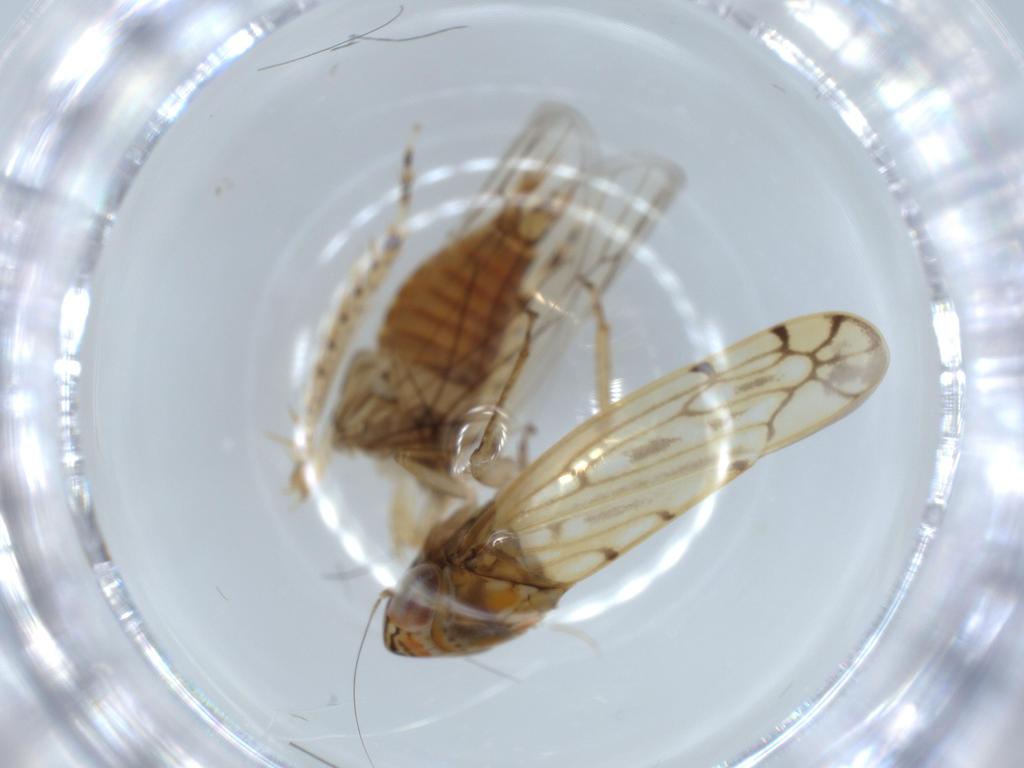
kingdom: Animalia
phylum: Arthropoda
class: Insecta
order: Hemiptera
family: Cicadellidae
